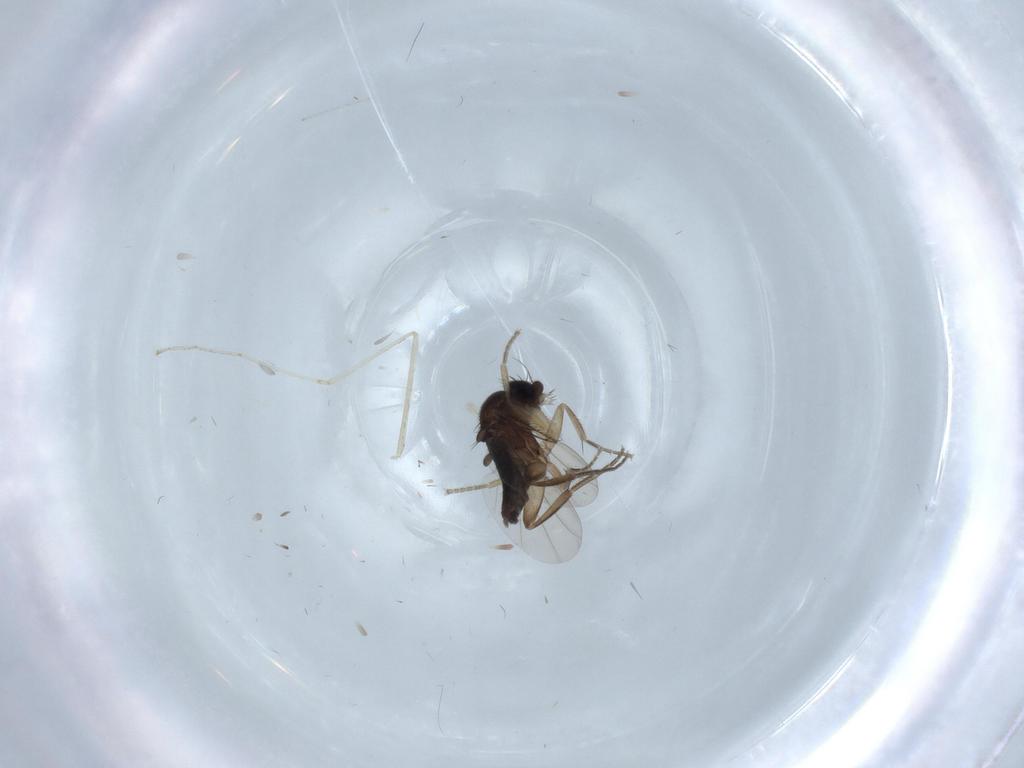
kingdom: Animalia
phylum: Arthropoda
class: Insecta
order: Diptera
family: Phoridae
